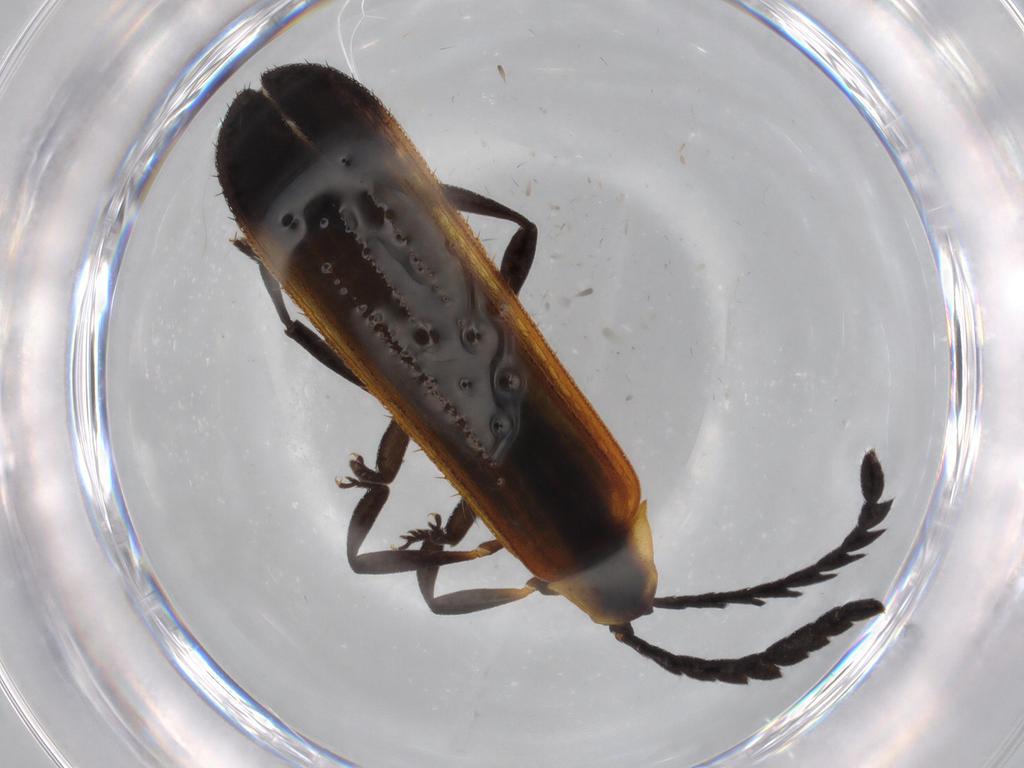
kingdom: Animalia
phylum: Arthropoda
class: Insecta
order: Coleoptera
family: Lycidae
